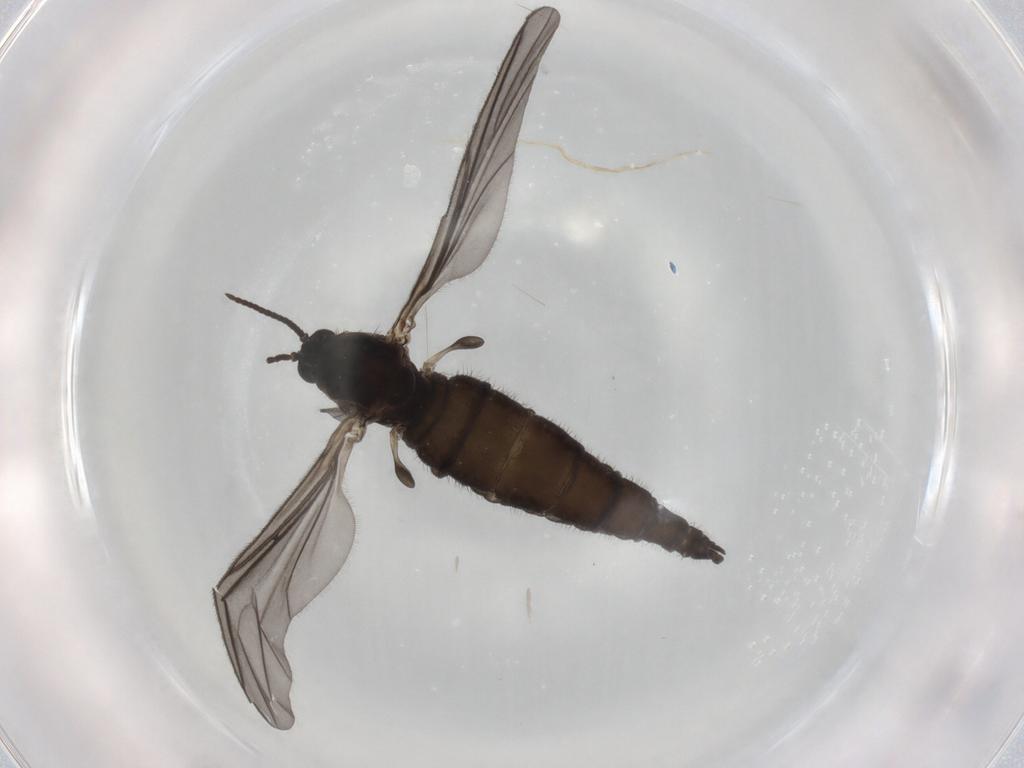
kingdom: Animalia
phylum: Arthropoda
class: Insecta
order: Diptera
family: Sciaridae
